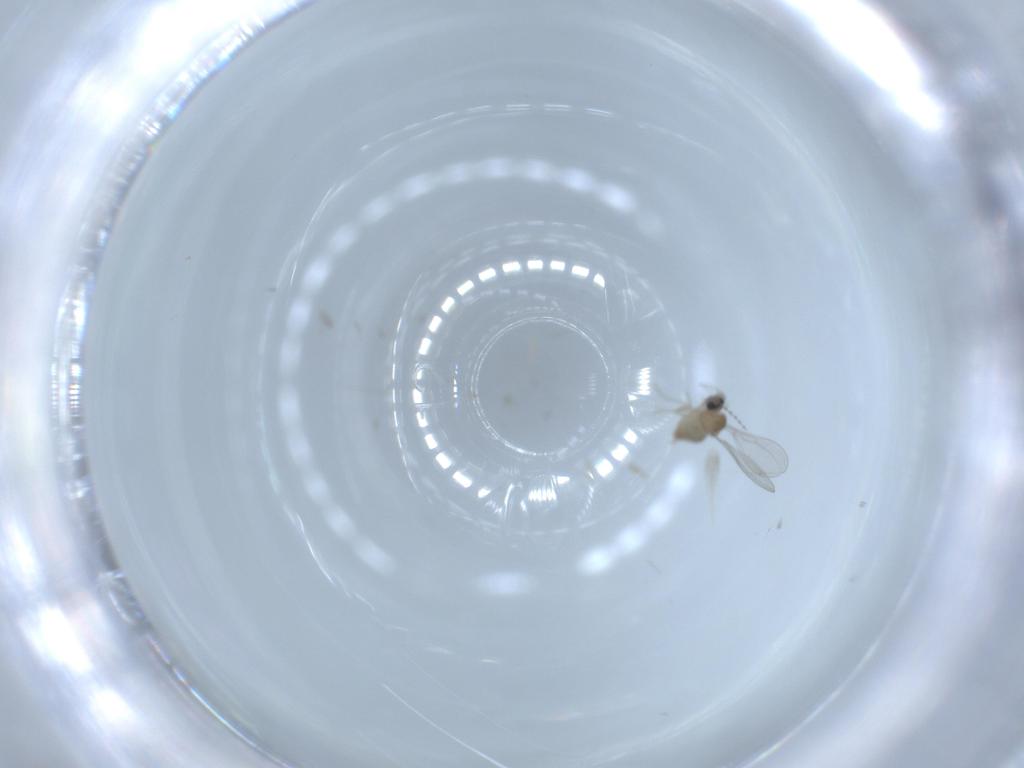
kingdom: Animalia
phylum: Arthropoda
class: Insecta
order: Diptera
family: Cecidomyiidae
